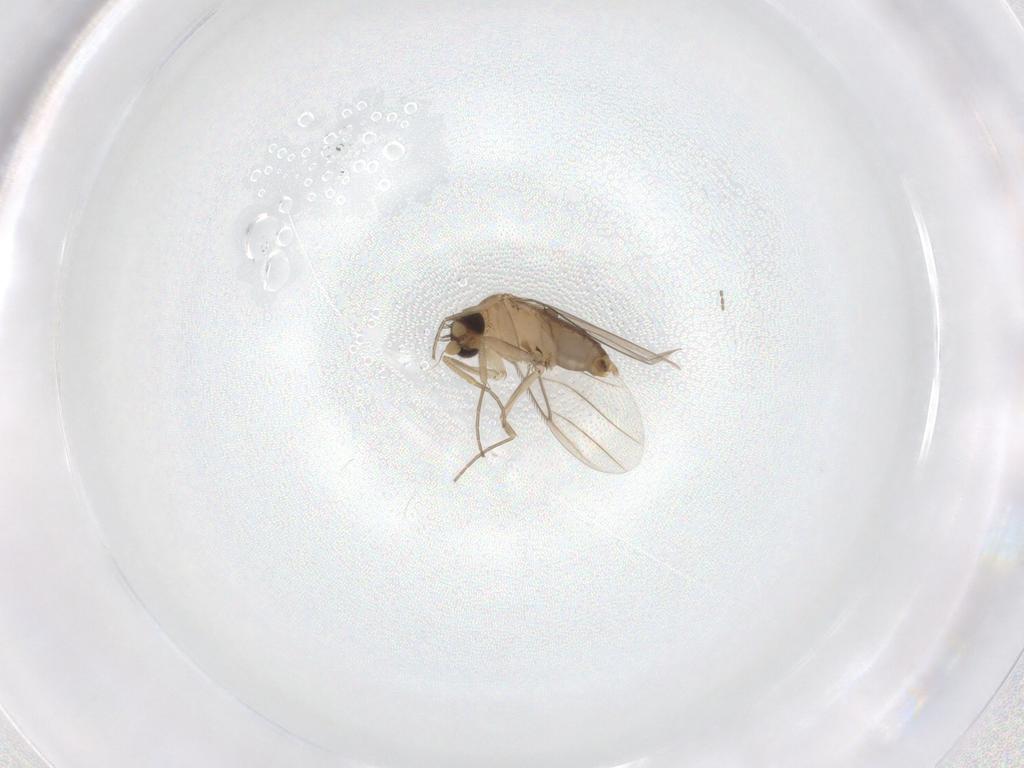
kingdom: Animalia
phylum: Arthropoda
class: Insecta
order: Diptera
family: Phoridae
